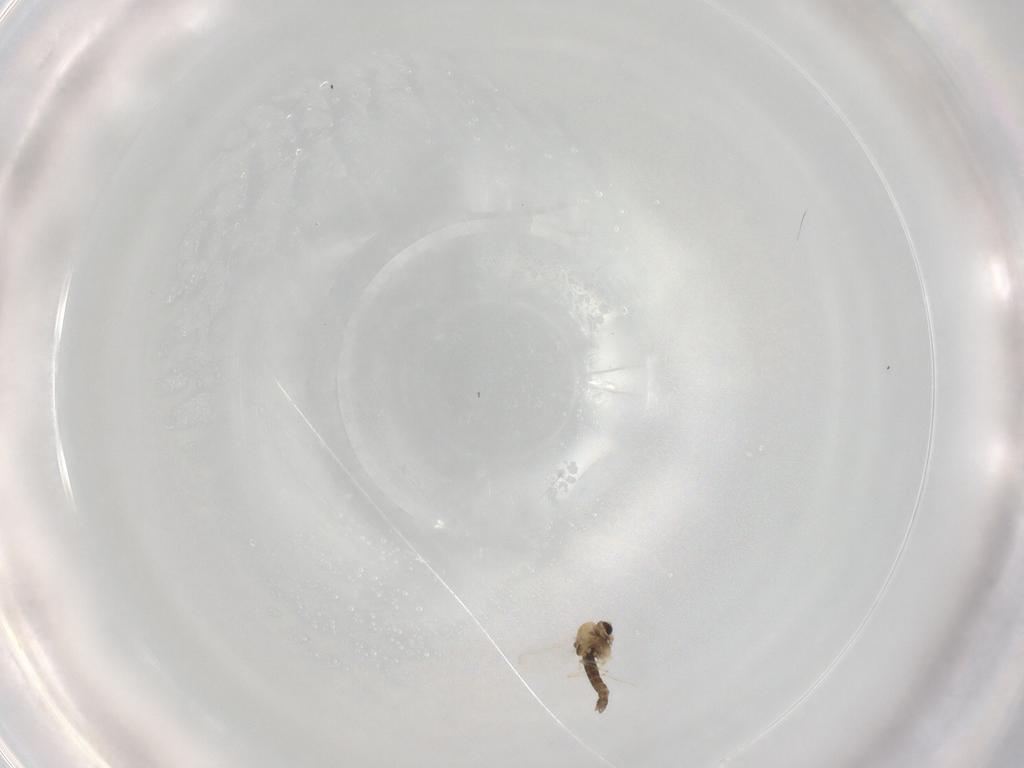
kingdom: Animalia
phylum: Arthropoda
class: Insecta
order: Diptera
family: Chironomidae
